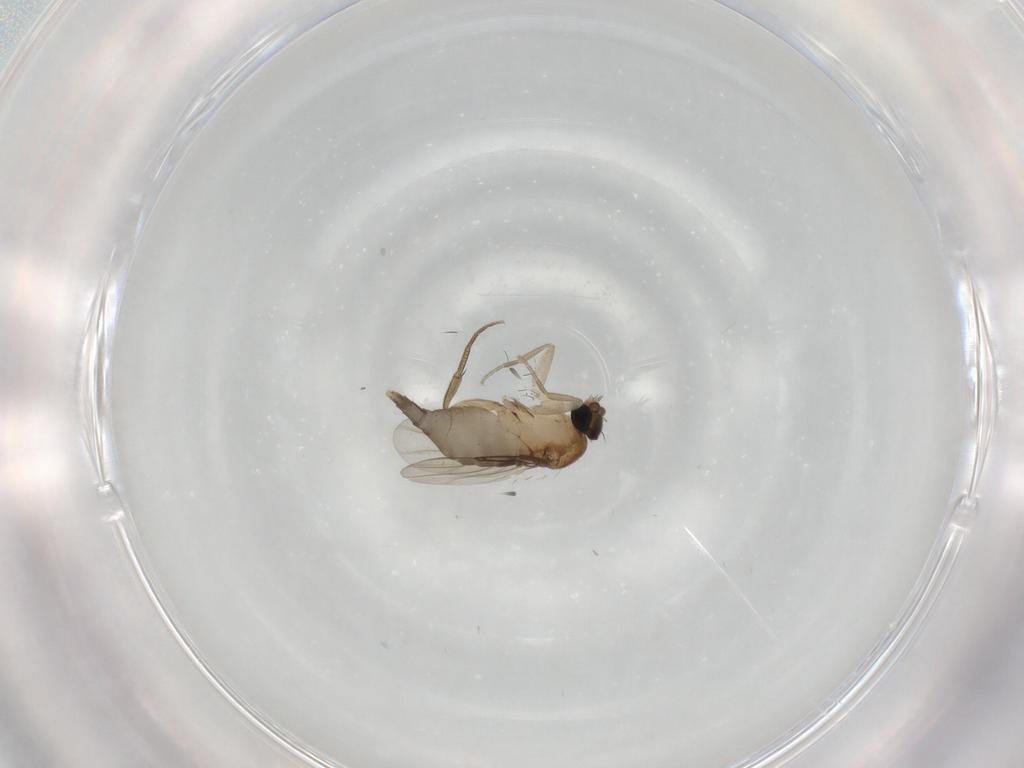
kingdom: Animalia
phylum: Arthropoda
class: Insecta
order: Diptera
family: Phoridae
